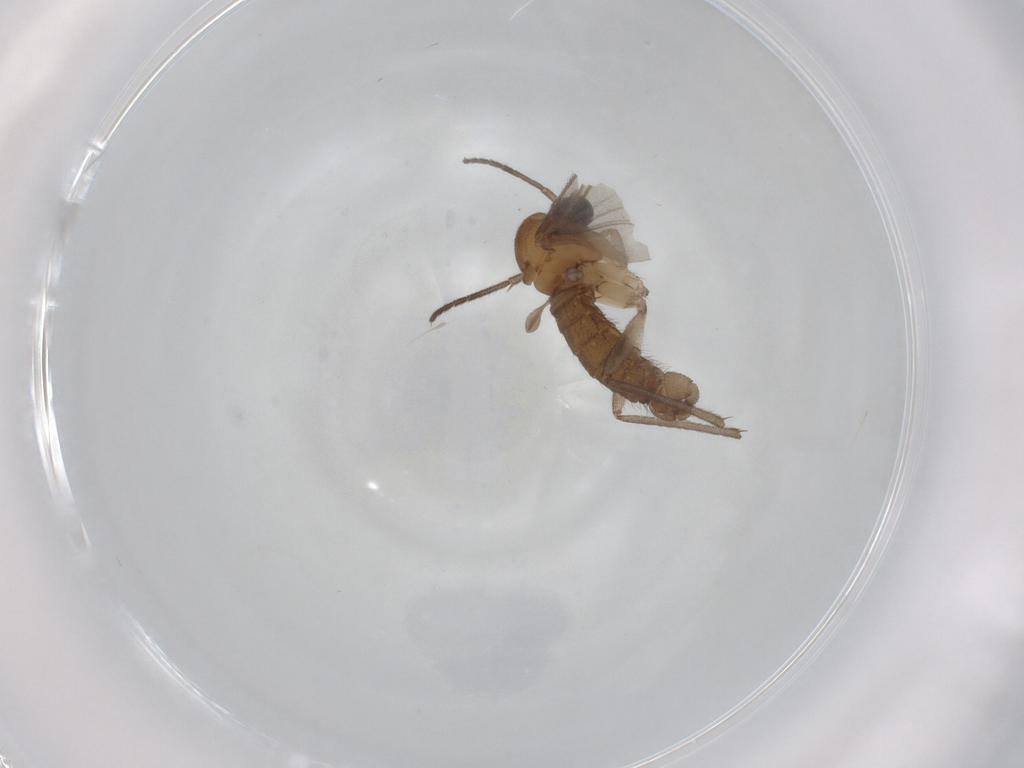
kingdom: Animalia
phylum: Arthropoda
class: Insecta
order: Diptera
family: Sciaridae
